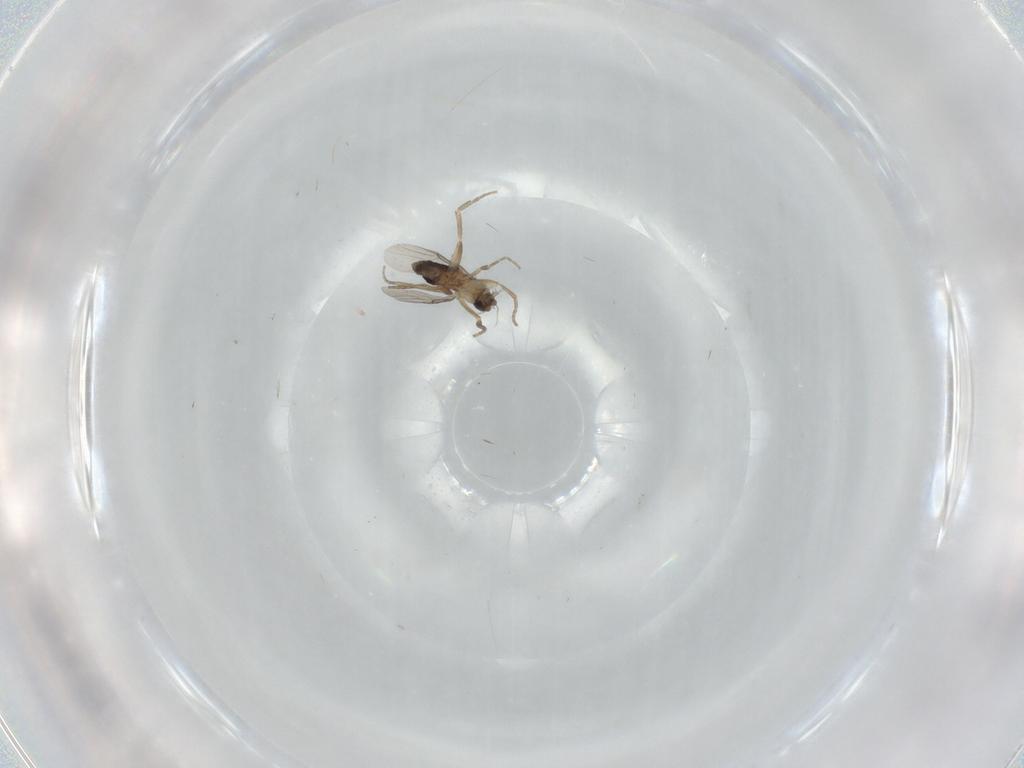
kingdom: Animalia
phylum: Arthropoda
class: Insecta
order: Diptera
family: Phoridae
